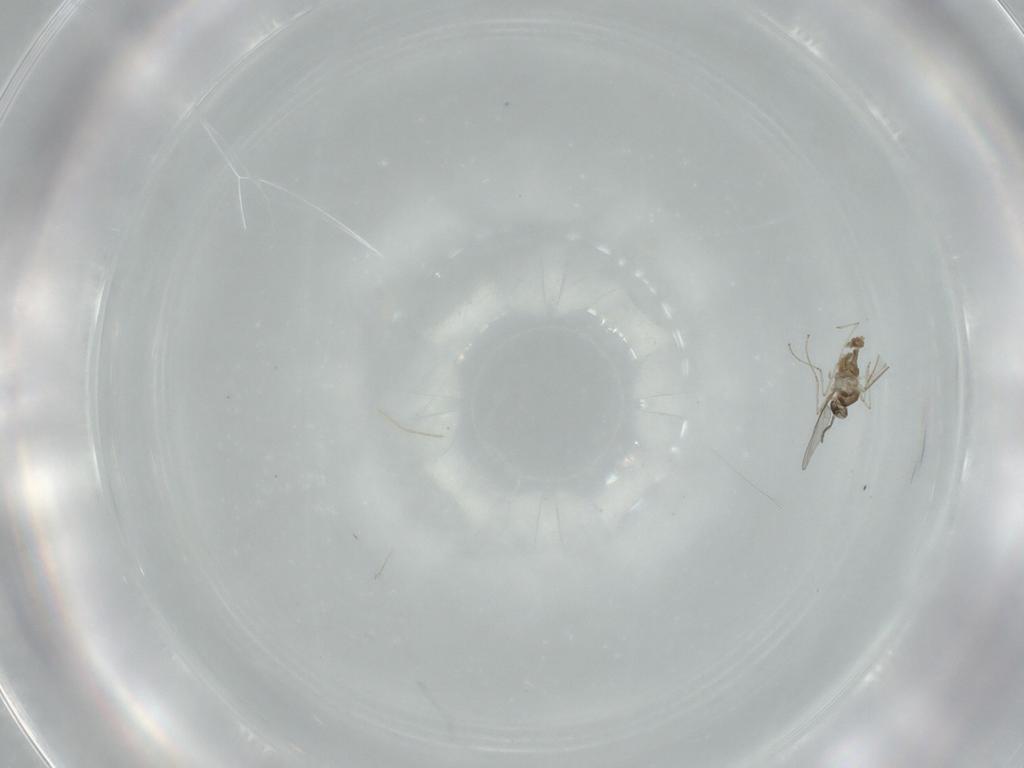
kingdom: Animalia
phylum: Arthropoda
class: Insecta
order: Diptera
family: Cecidomyiidae
